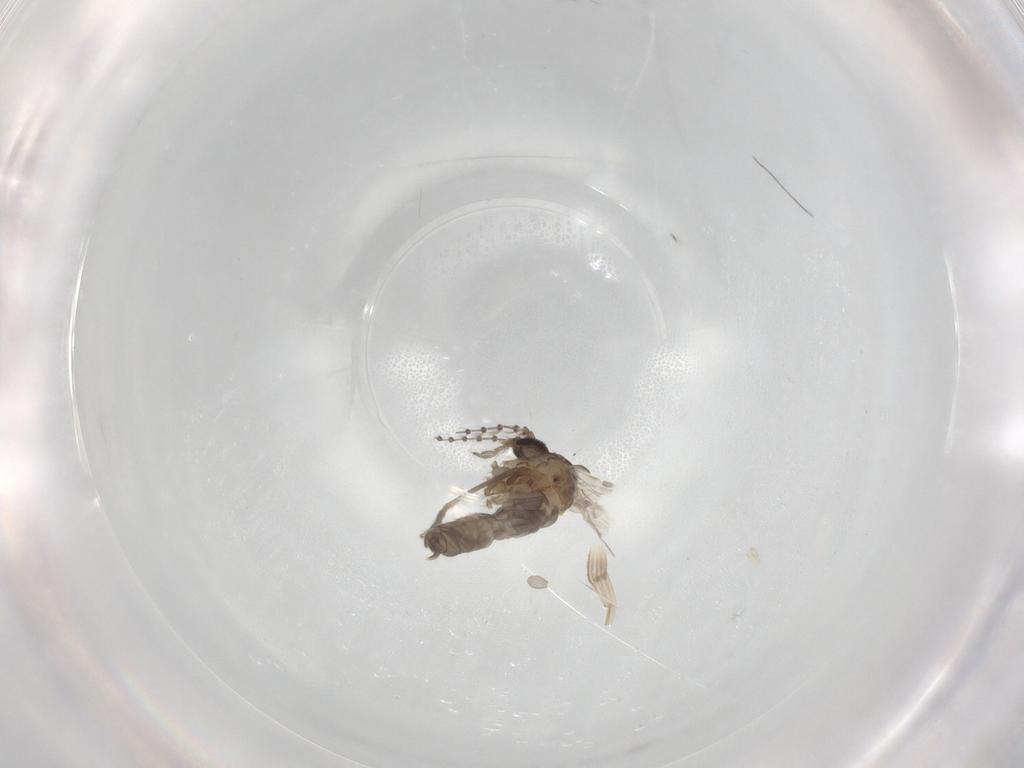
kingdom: Animalia
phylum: Arthropoda
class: Insecta
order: Diptera
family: Psychodidae
